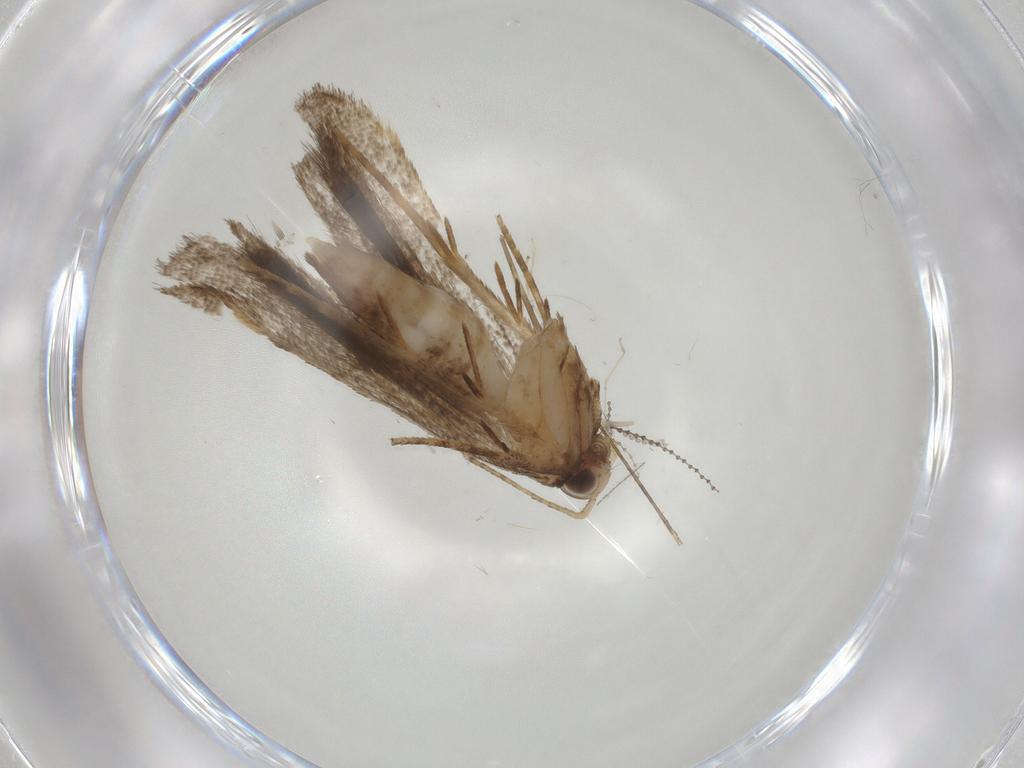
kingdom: Animalia
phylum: Arthropoda
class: Insecta
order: Lepidoptera
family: Gelechiidae
